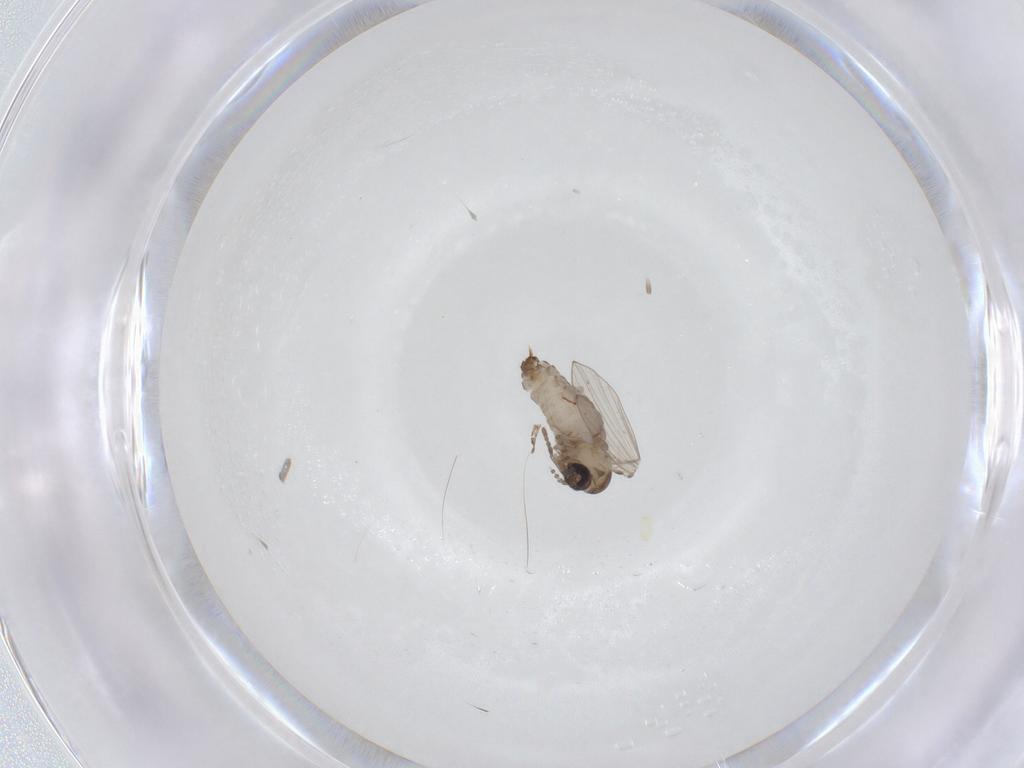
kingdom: Animalia
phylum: Arthropoda
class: Insecta
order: Diptera
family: Psychodidae
